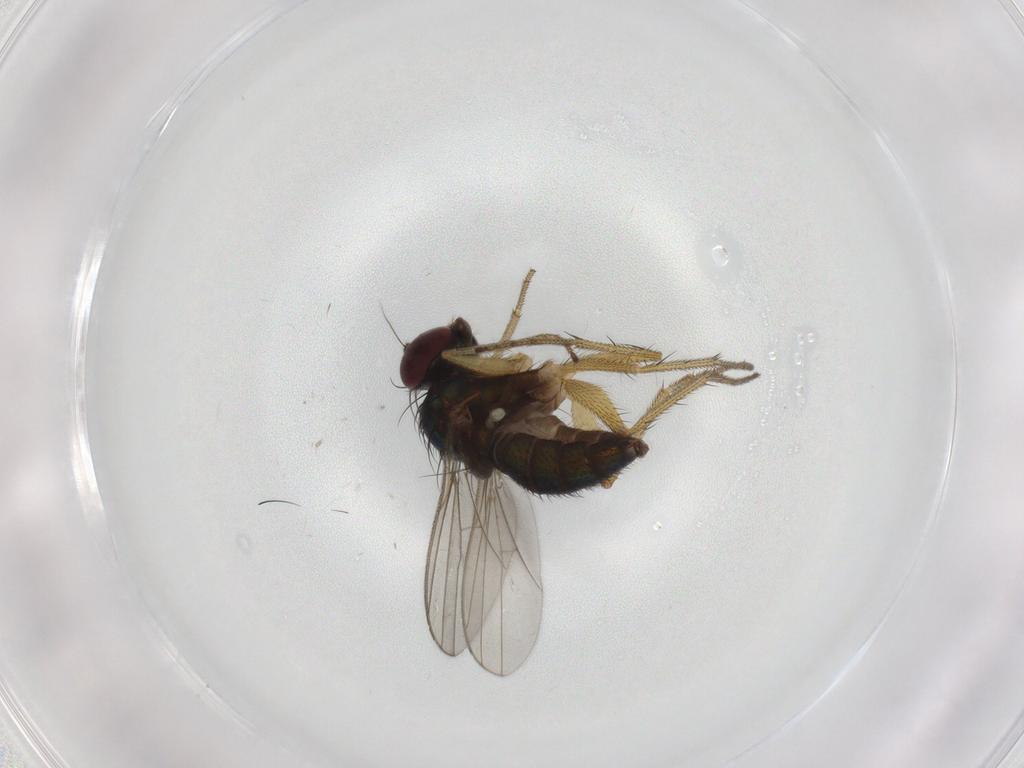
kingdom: Animalia
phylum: Arthropoda
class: Insecta
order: Diptera
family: Dolichopodidae
